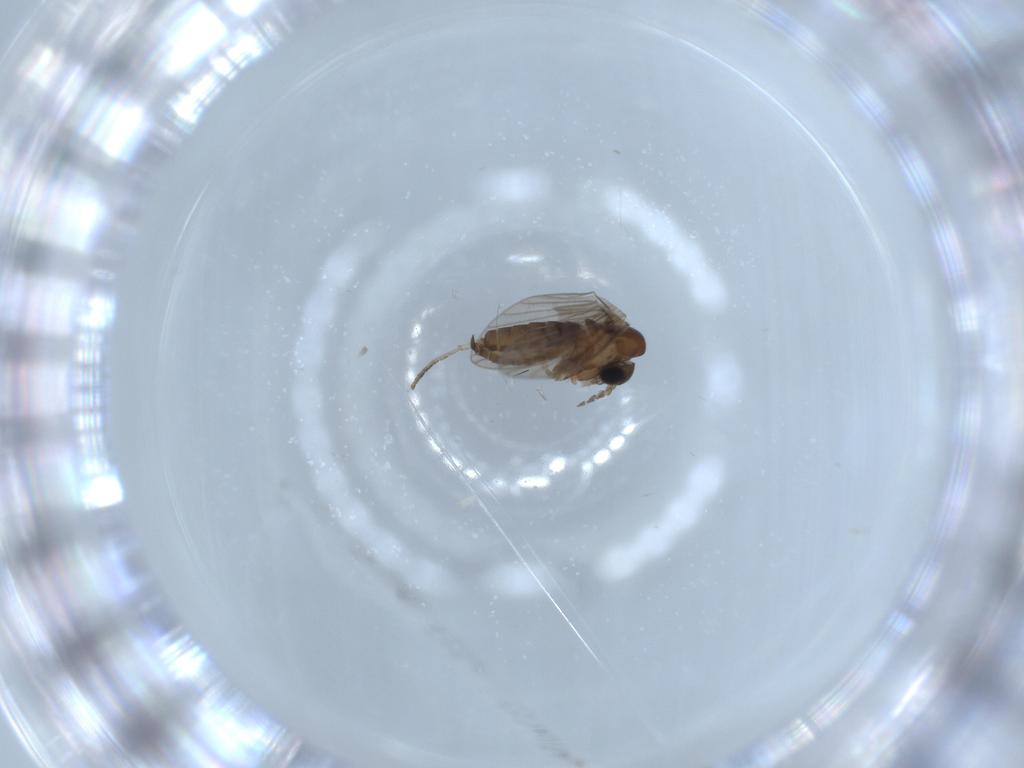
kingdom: Animalia
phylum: Arthropoda
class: Insecta
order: Diptera
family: Psychodidae
